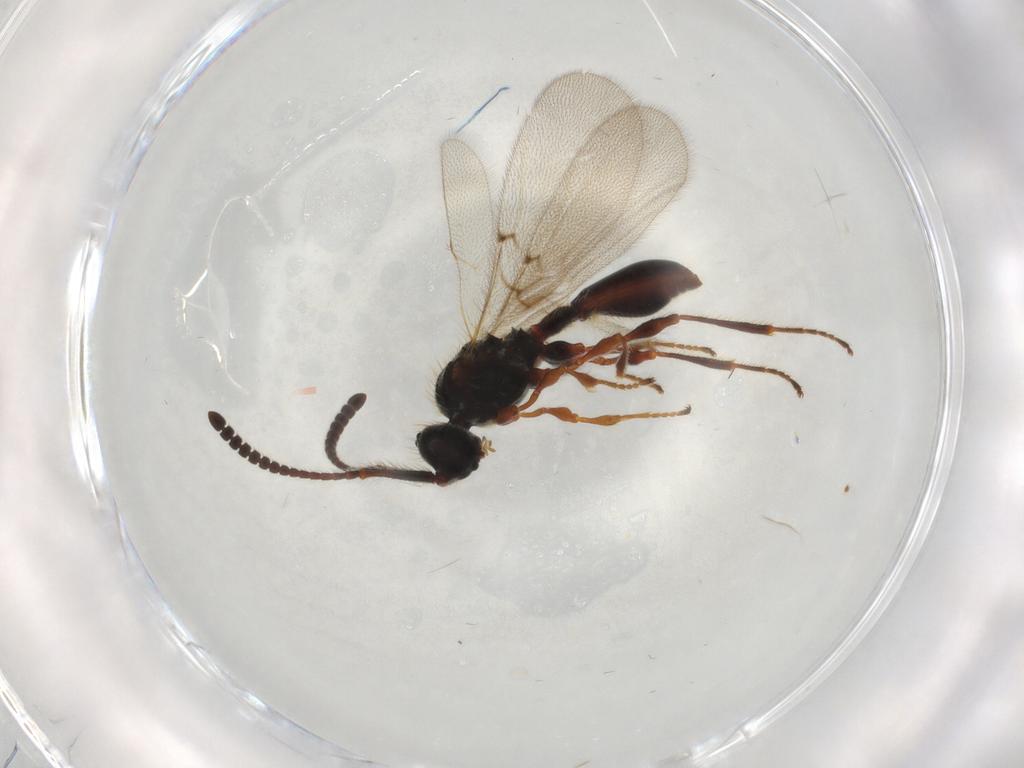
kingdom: Animalia
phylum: Arthropoda
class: Insecta
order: Hymenoptera
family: Diapriidae
